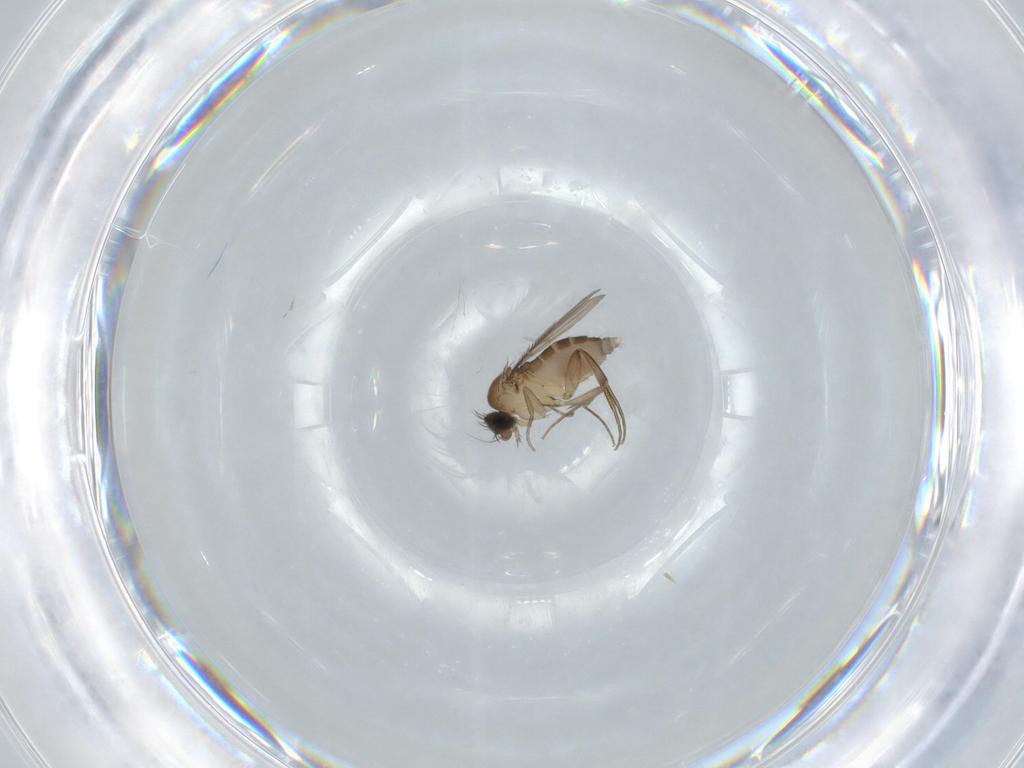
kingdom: Animalia
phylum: Arthropoda
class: Insecta
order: Diptera
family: Phoridae
